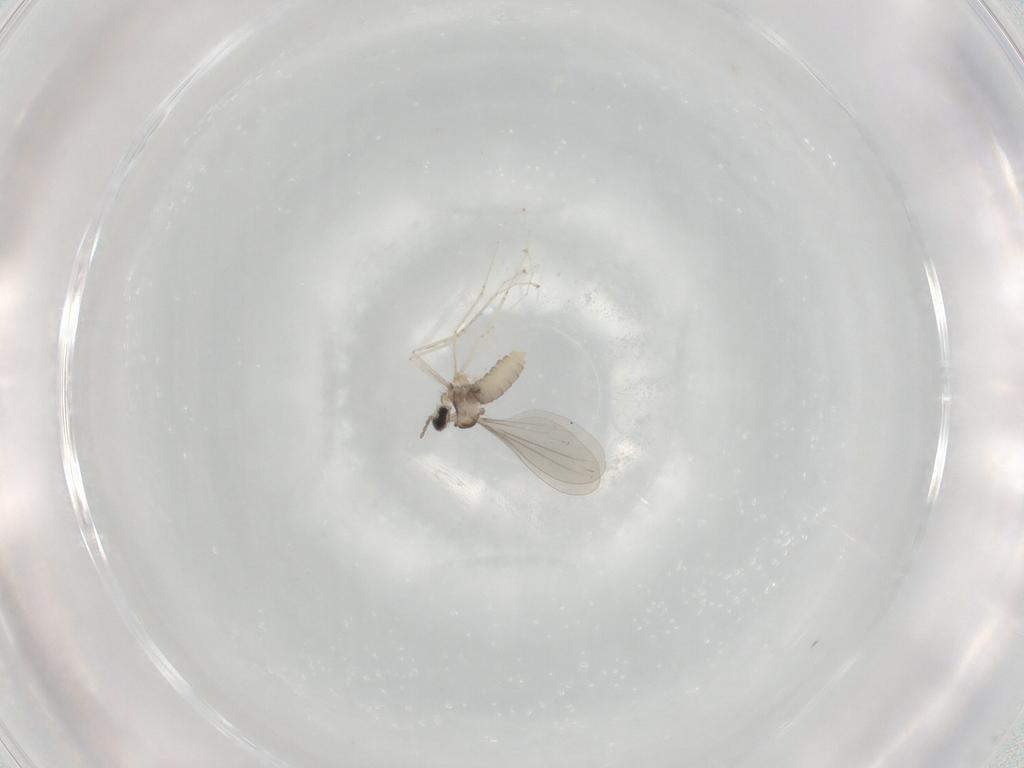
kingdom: Animalia
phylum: Arthropoda
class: Insecta
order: Diptera
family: Cecidomyiidae
